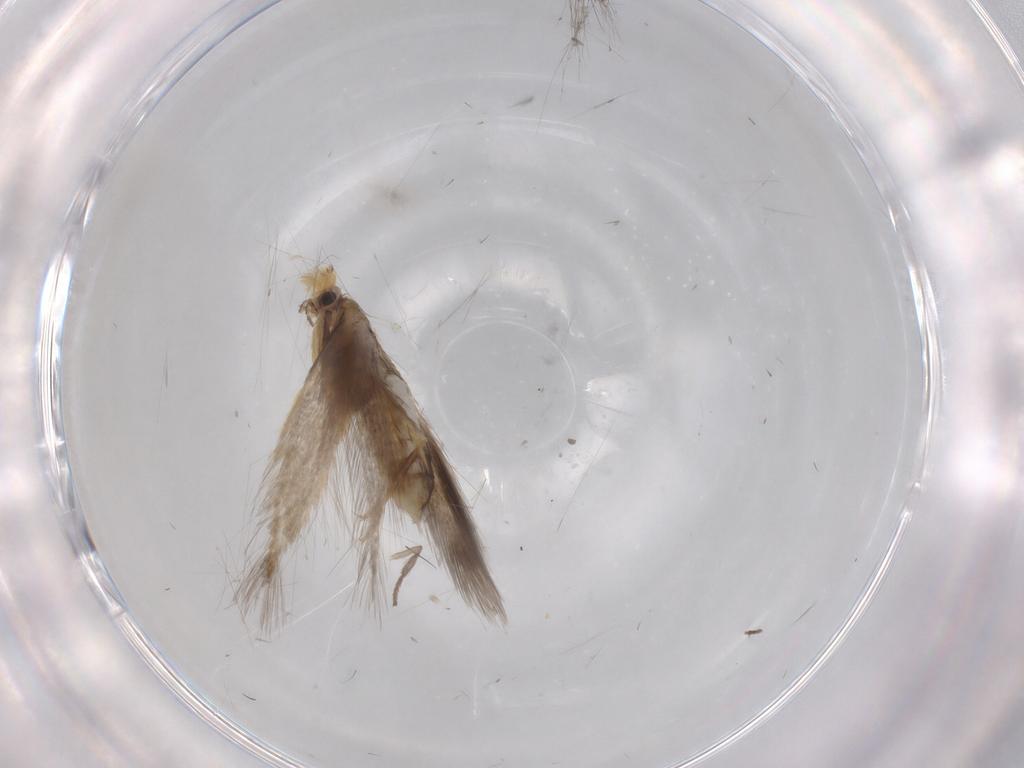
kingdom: Animalia
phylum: Arthropoda
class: Insecta
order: Lepidoptera
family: Nepticulidae
